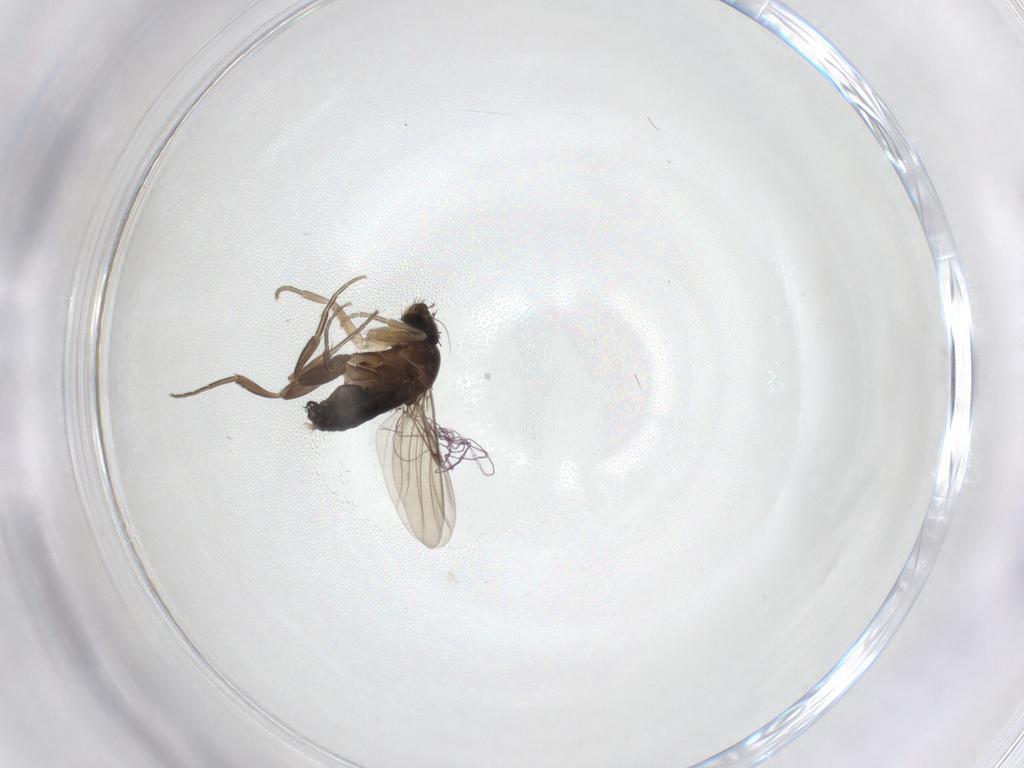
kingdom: Animalia
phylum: Arthropoda
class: Insecta
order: Diptera
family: Phoridae
